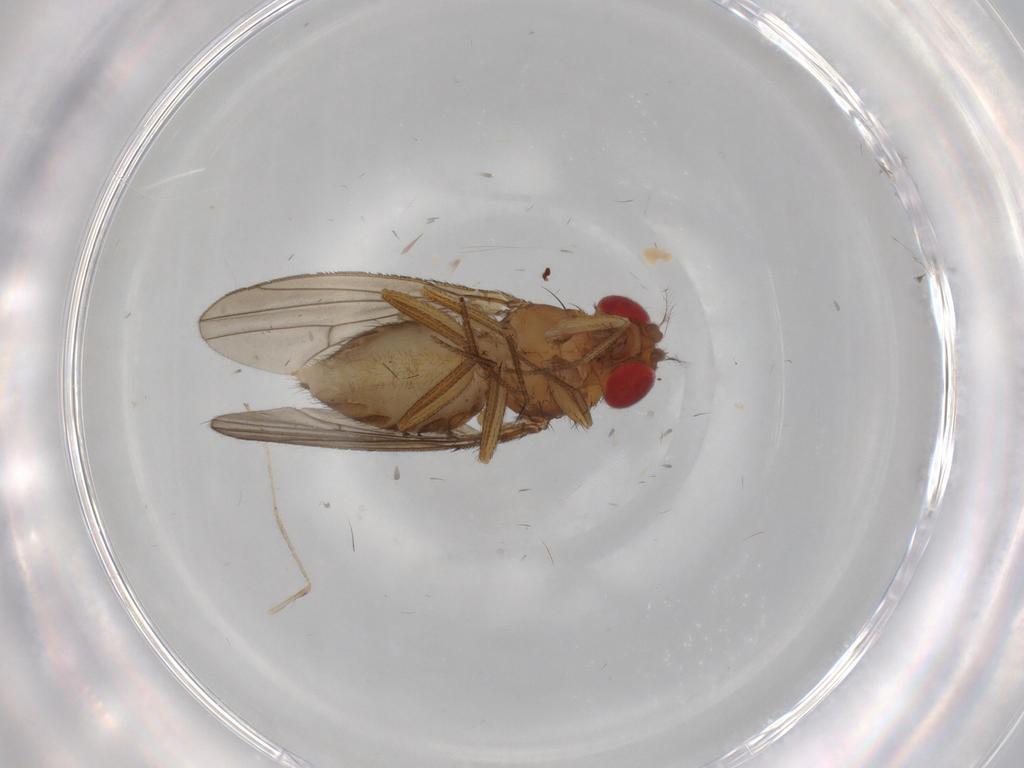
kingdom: Animalia
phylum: Arthropoda
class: Insecta
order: Diptera
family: Drosophilidae
